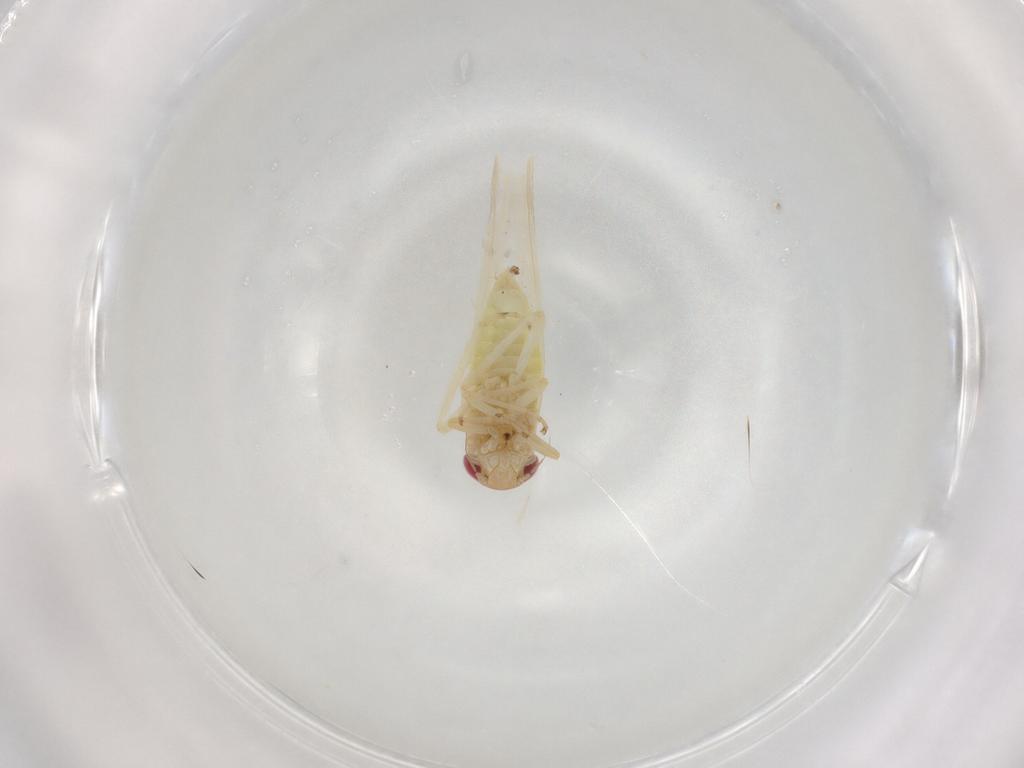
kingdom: Animalia
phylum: Arthropoda
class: Insecta
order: Hemiptera
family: Cicadellidae
